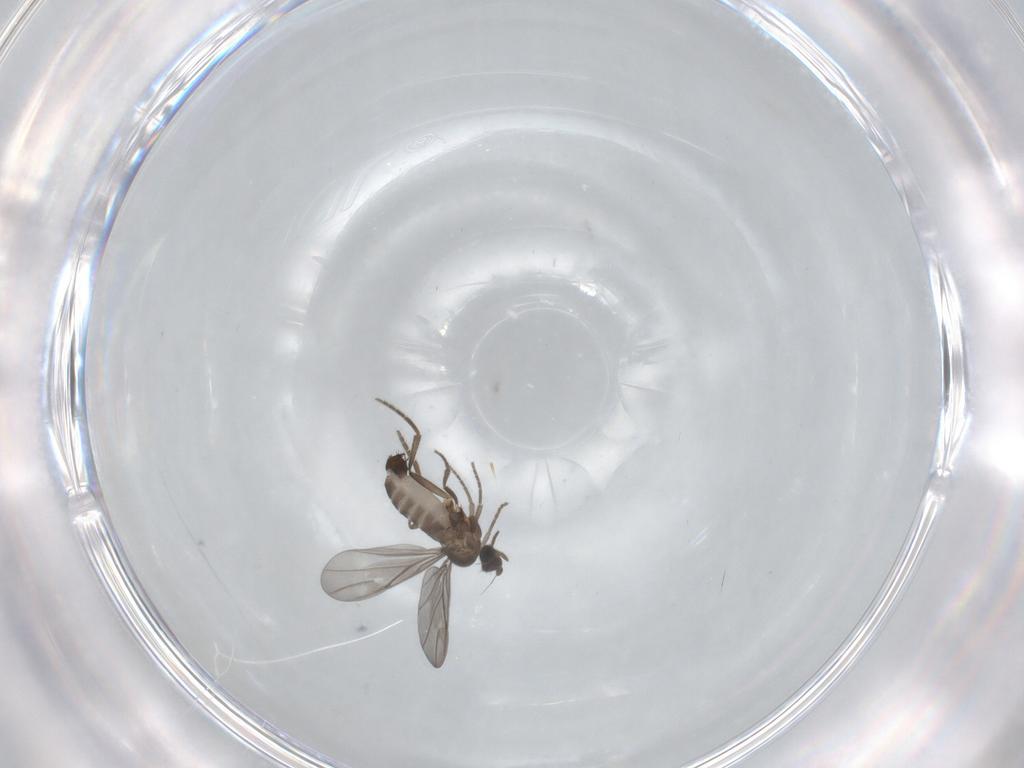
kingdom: Animalia
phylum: Arthropoda
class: Insecta
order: Diptera
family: Phoridae
